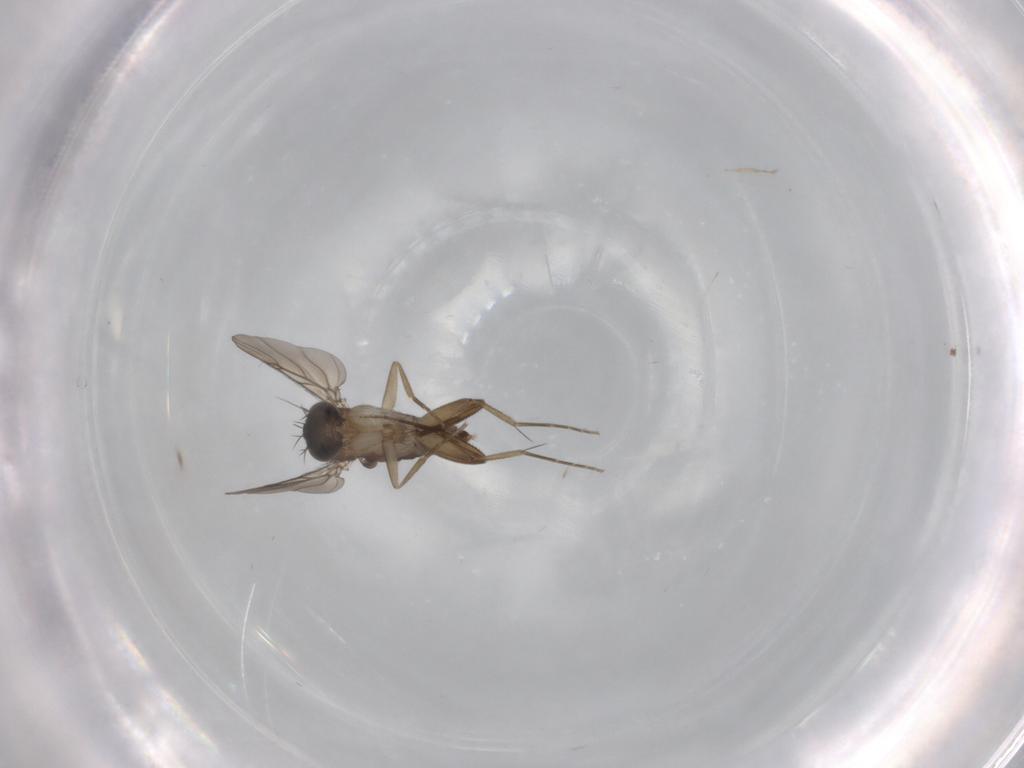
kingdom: Animalia
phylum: Arthropoda
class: Insecta
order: Diptera
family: Phoridae
